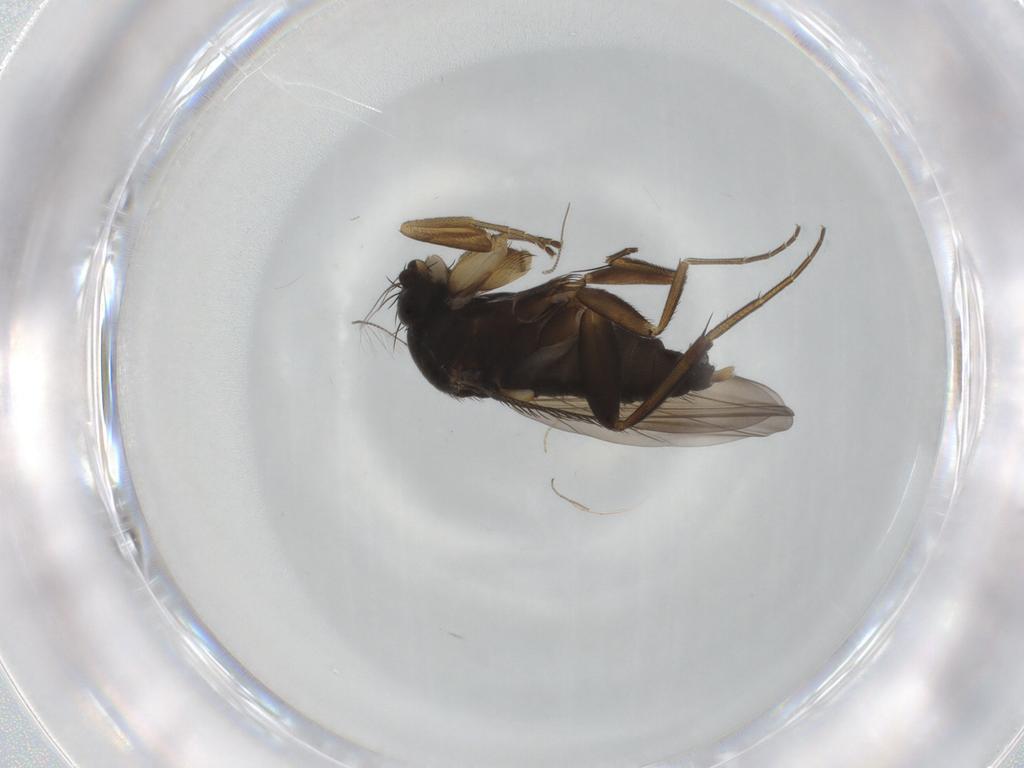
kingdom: Animalia
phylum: Arthropoda
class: Insecta
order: Diptera
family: Phoridae
